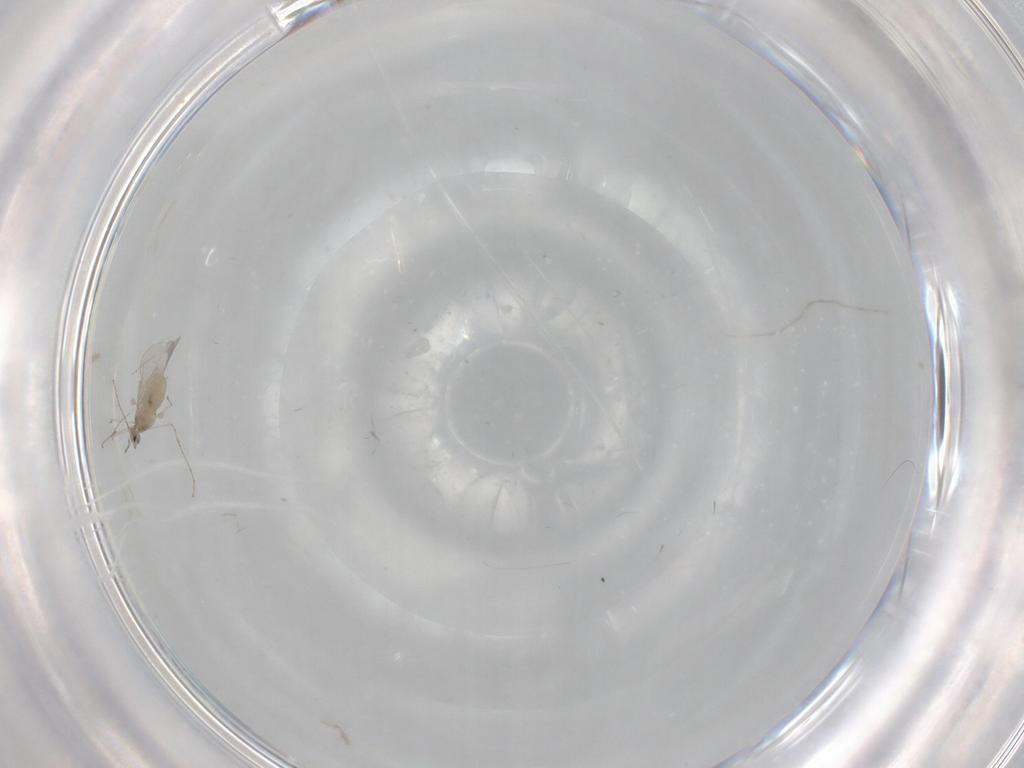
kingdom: Animalia
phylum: Arthropoda
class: Insecta
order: Diptera
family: Cecidomyiidae
